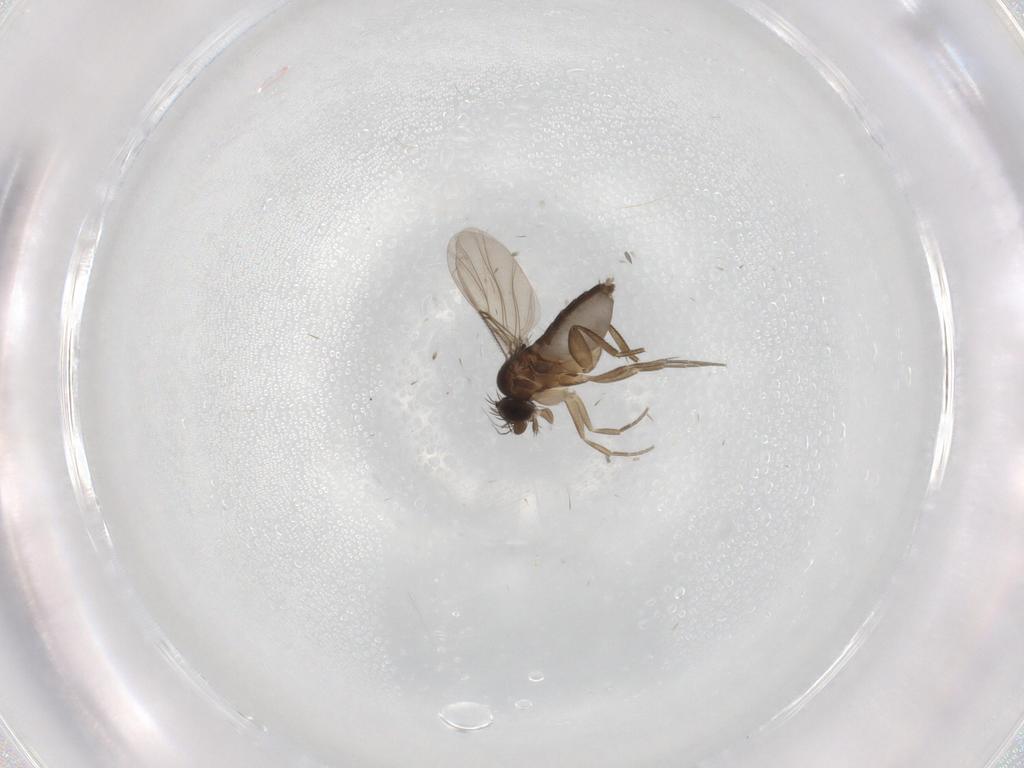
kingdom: Animalia
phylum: Arthropoda
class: Insecta
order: Diptera
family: Phoridae
